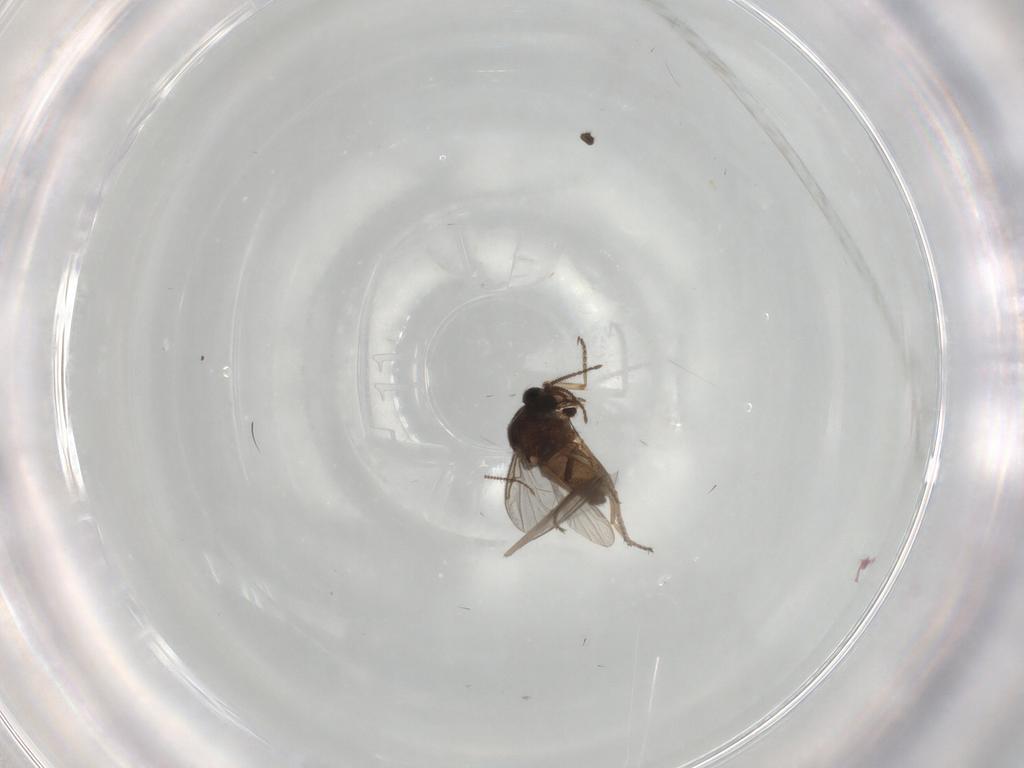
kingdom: Animalia
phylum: Arthropoda
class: Insecta
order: Diptera
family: Ceratopogonidae
